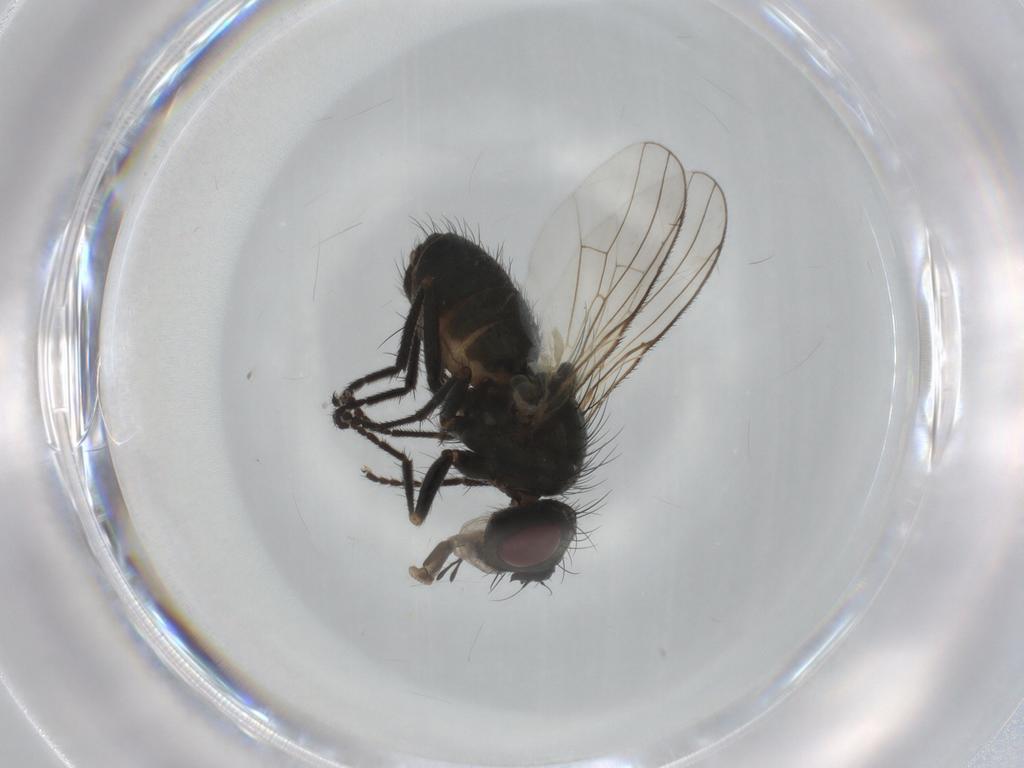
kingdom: Animalia
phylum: Arthropoda
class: Insecta
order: Diptera
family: Muscidae
